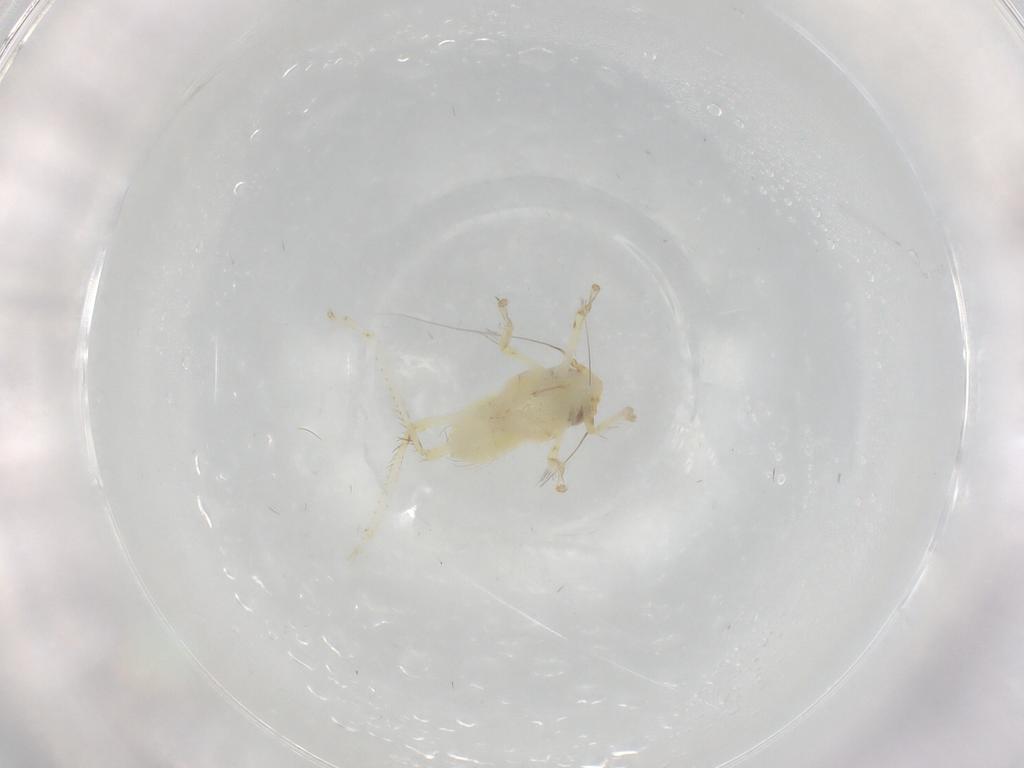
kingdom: Animalia
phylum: Arthropoda
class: Insecta
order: Hemiptera
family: Cicadellidae
